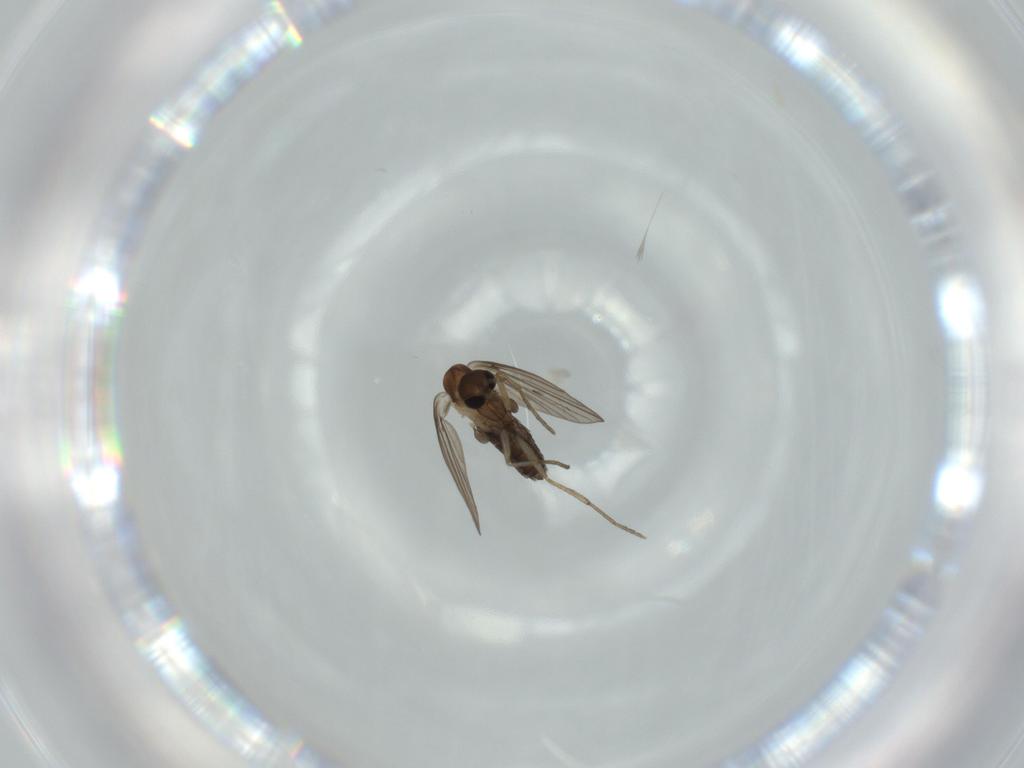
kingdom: Animalia
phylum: Arthropoda
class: Insecta
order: Diptera
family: Psychodidae
